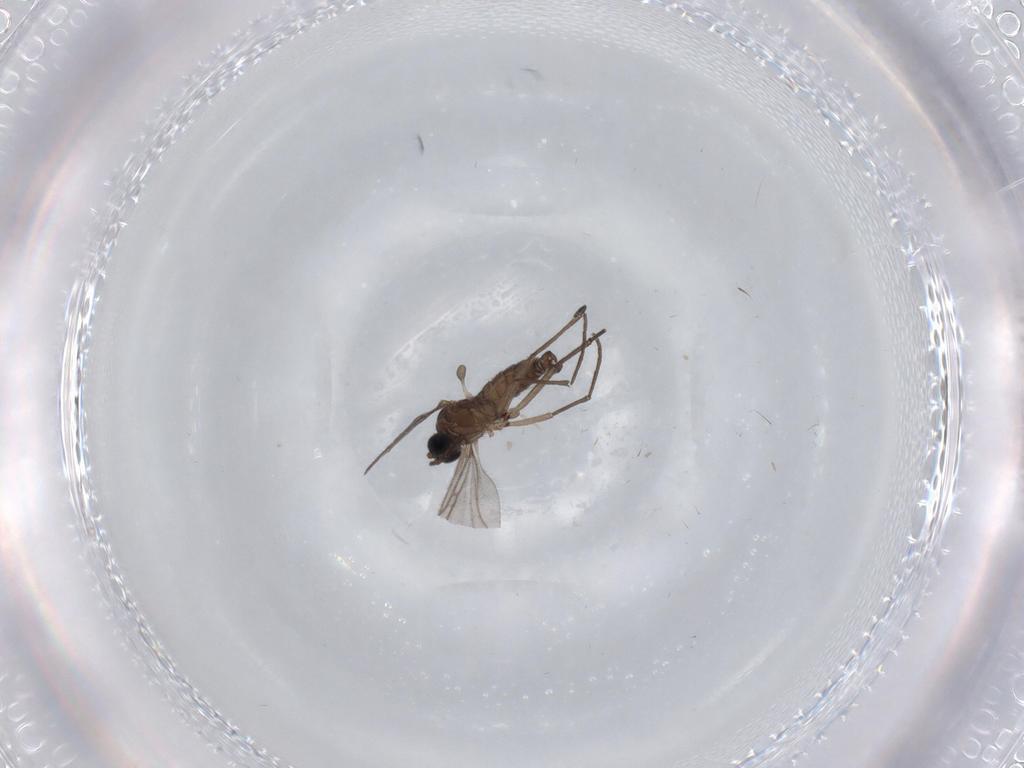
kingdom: Animalia
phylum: Arthropoda
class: Insecta
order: Diptera
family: Sciaridae
